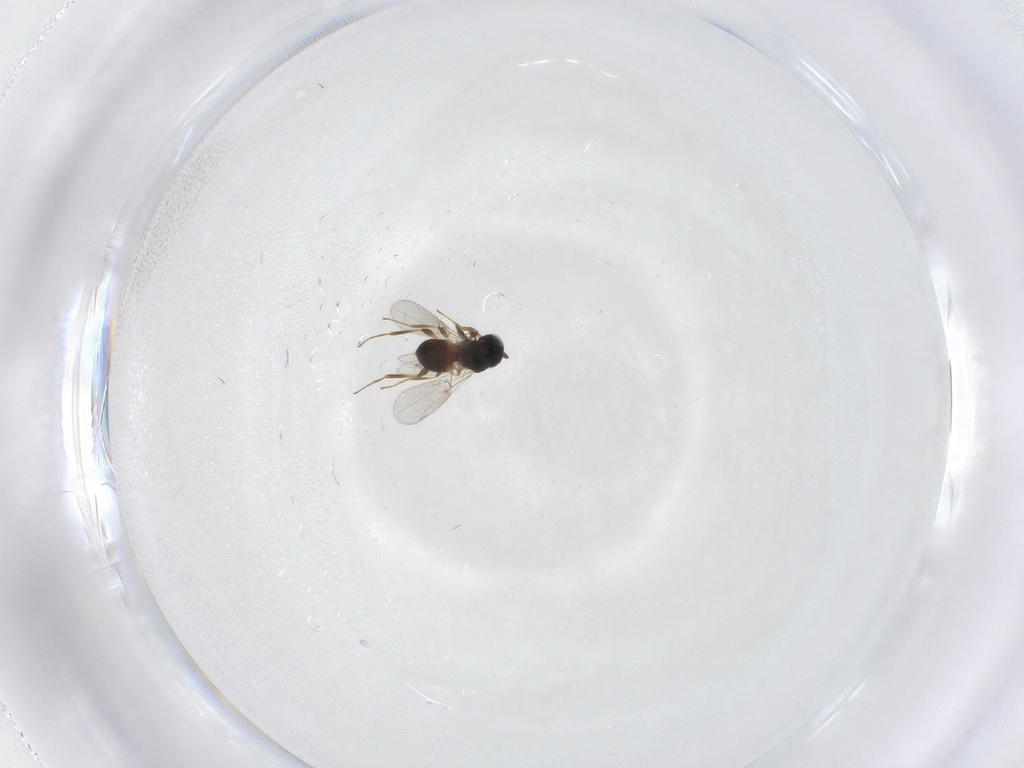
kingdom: Animalia
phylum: Arthropoda
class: Insecta
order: Hymenoptera
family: Platygastridae
